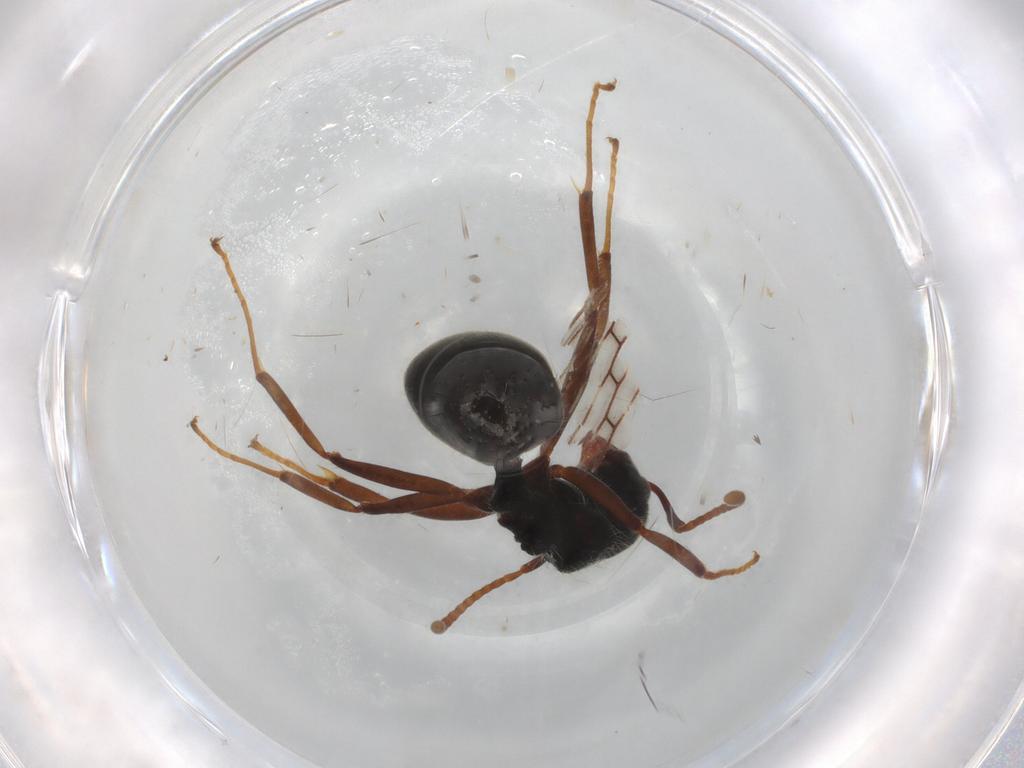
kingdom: Animalia
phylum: Arthropoda
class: Insecta
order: Hymenoptera
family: Formicidae
